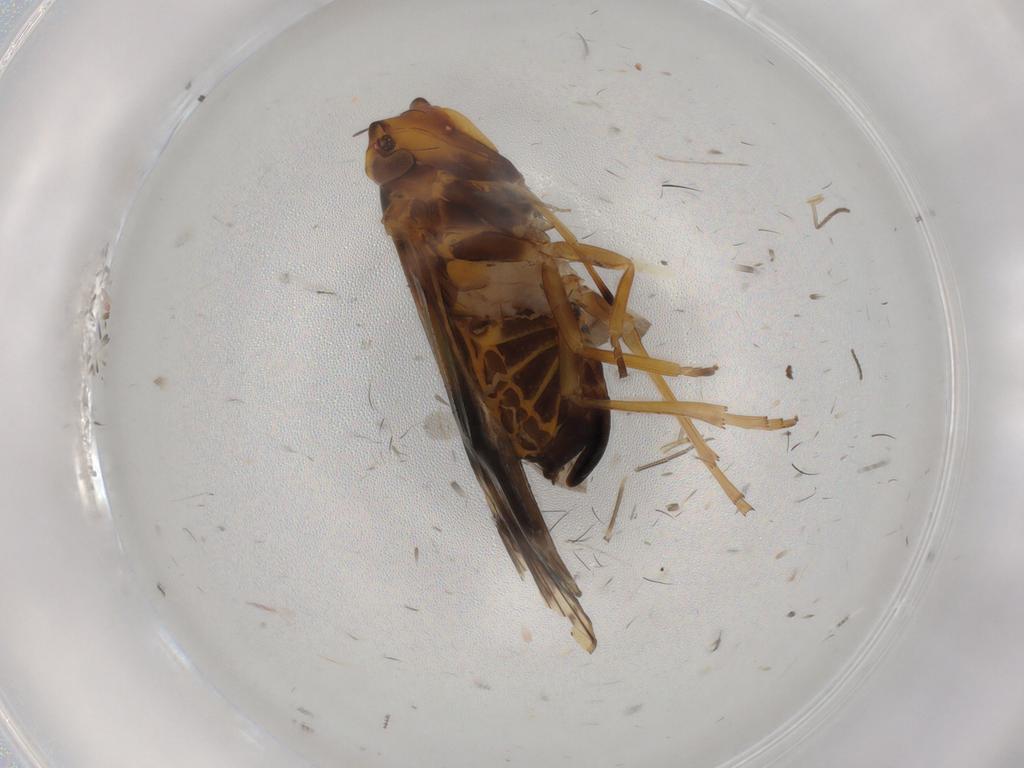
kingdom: Animalia
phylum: Arthropoda
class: Insecta
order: Hemiptera
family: Cixiidae
